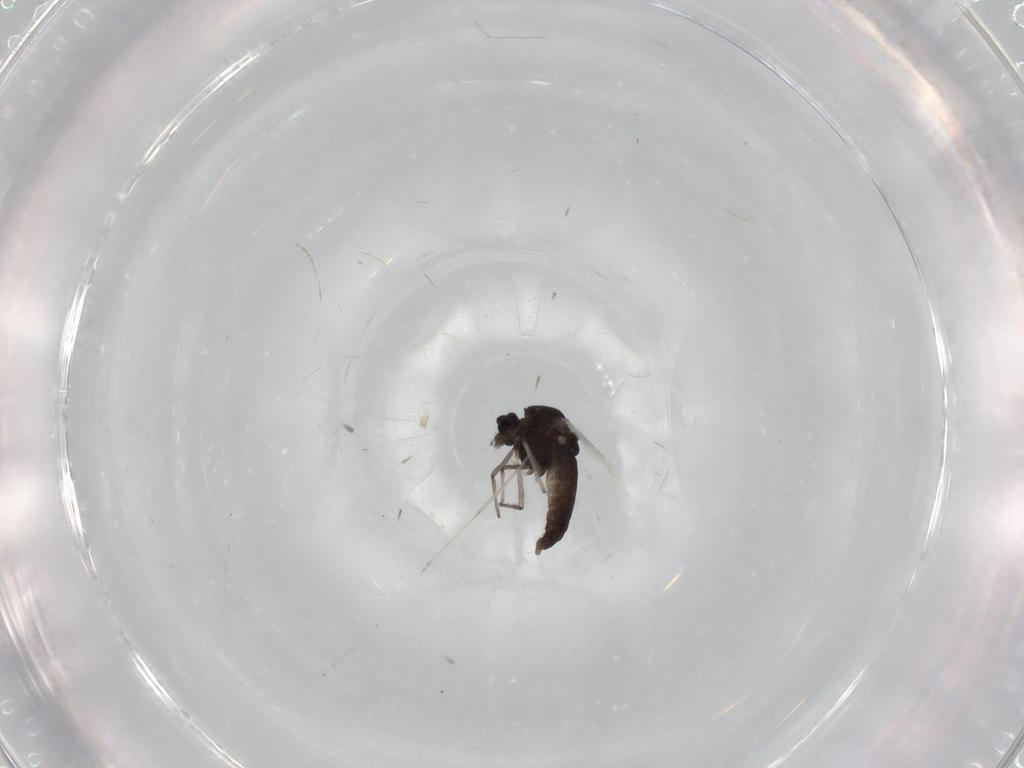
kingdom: Animalia
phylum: Arthropoda
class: Insecta
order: Diptera
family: Chironomidae
